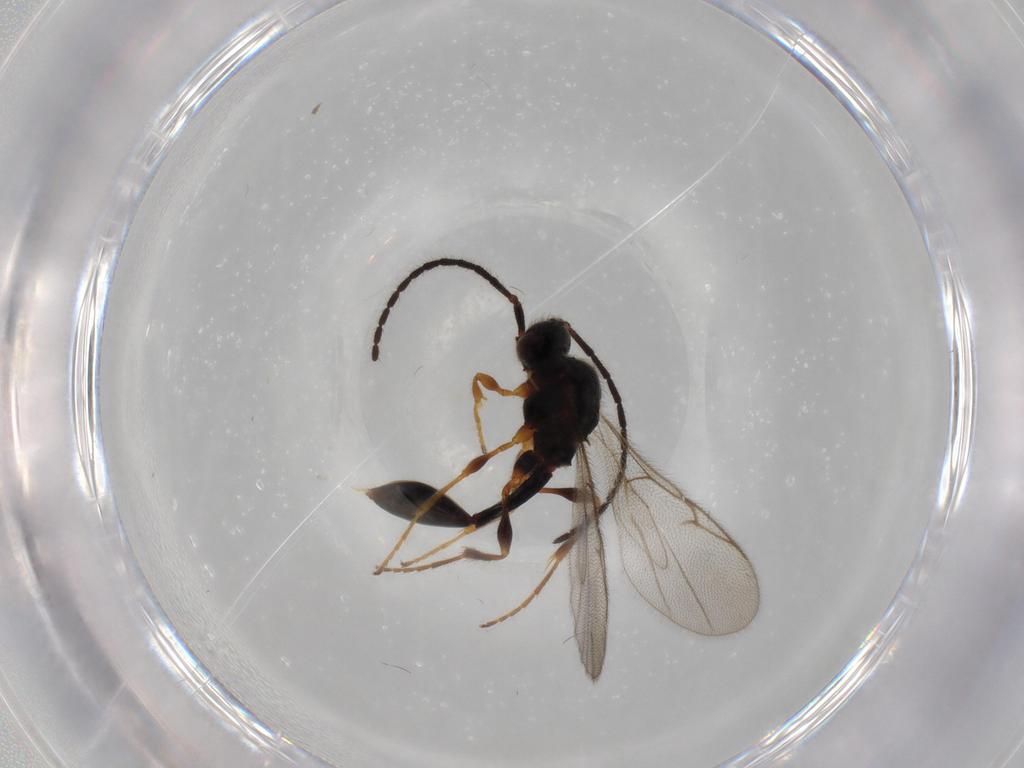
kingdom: Animalia
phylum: Arthropoda
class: Insecta
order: Hymenoptera
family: Diapriidae
